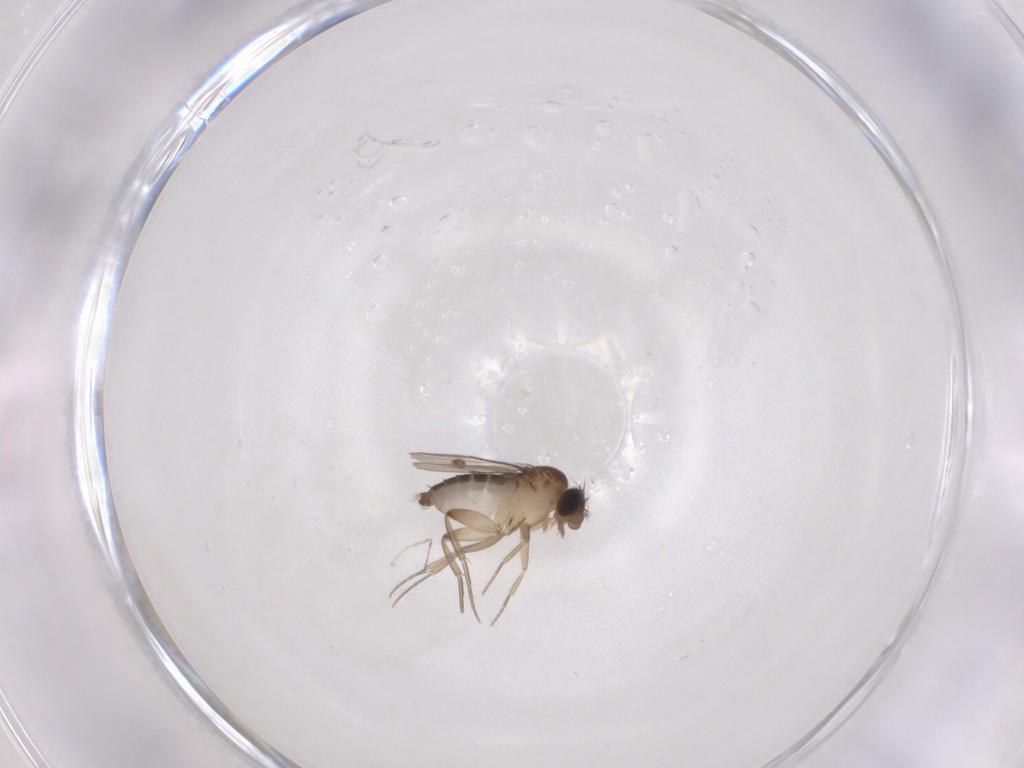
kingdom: Animalia
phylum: Arthropoda
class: Insecta
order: Diptera
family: Phoridae
